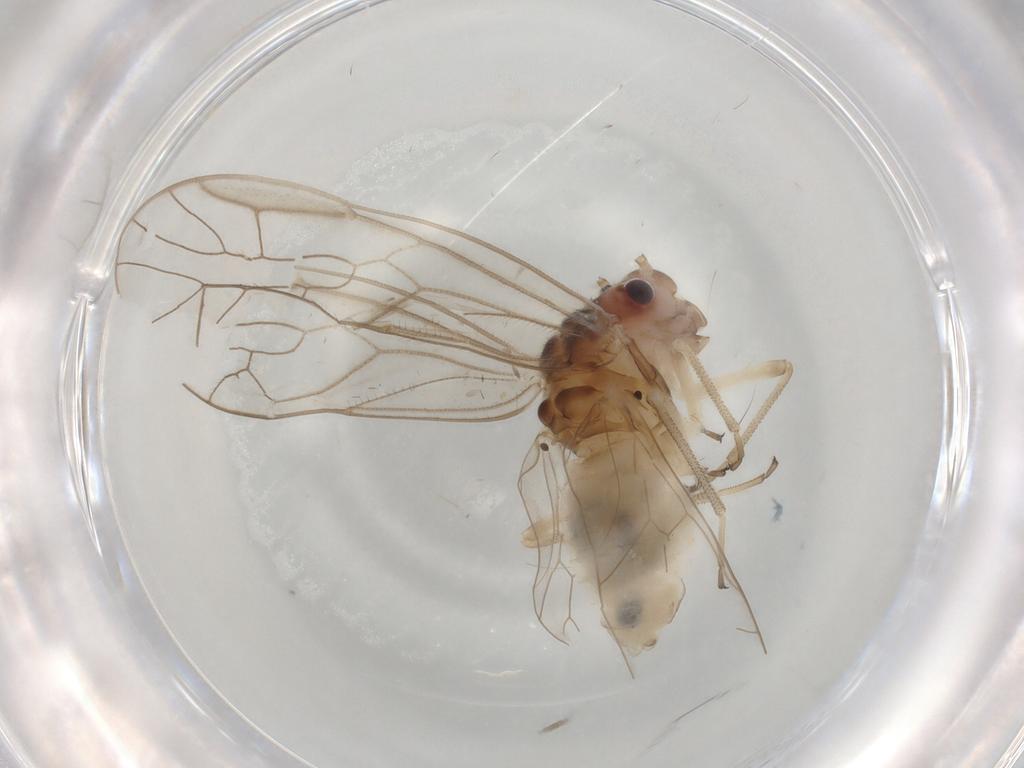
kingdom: Animalia
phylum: Arthropoda
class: Insecta
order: Psocodea
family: Stenopsocidae
